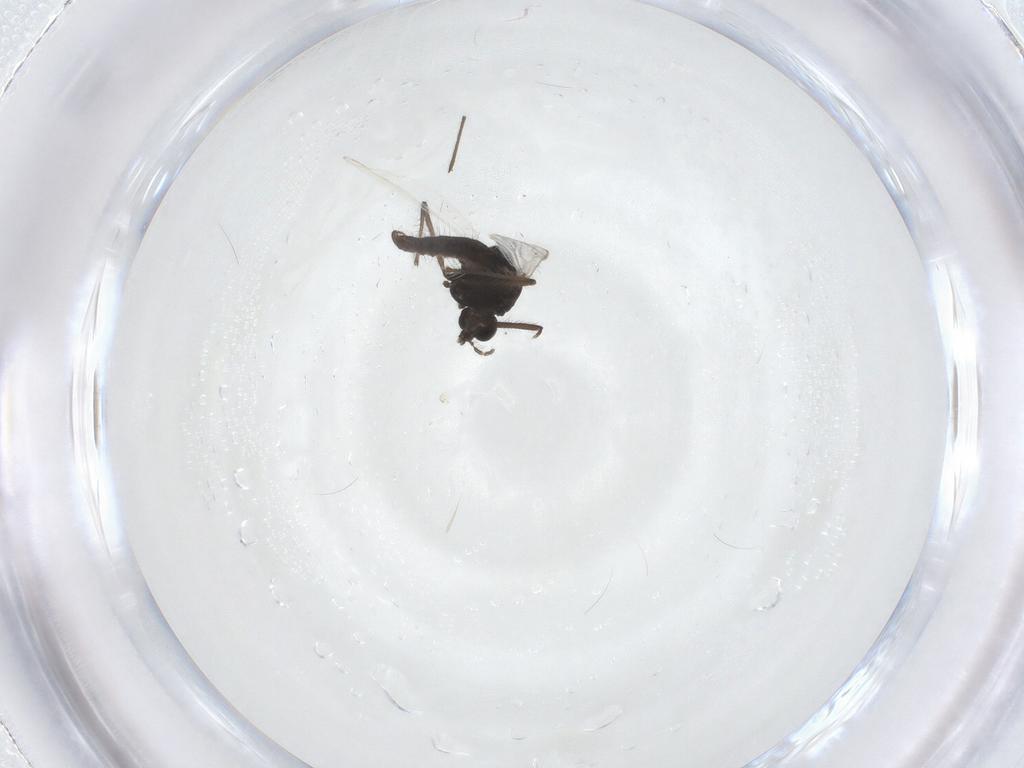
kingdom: Animalia
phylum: Arthropoda
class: Insecta
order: Diptera
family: Chironomidae
